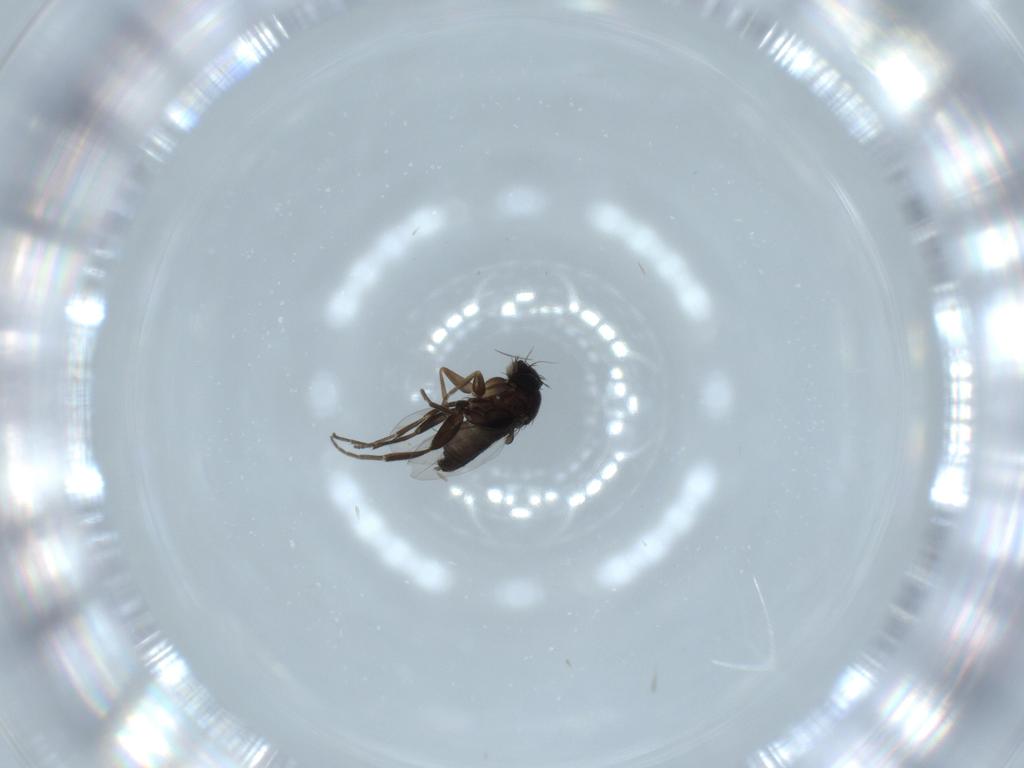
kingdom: Animalia
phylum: Arthropoda
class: Insecta
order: Diptera
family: Phoridae
